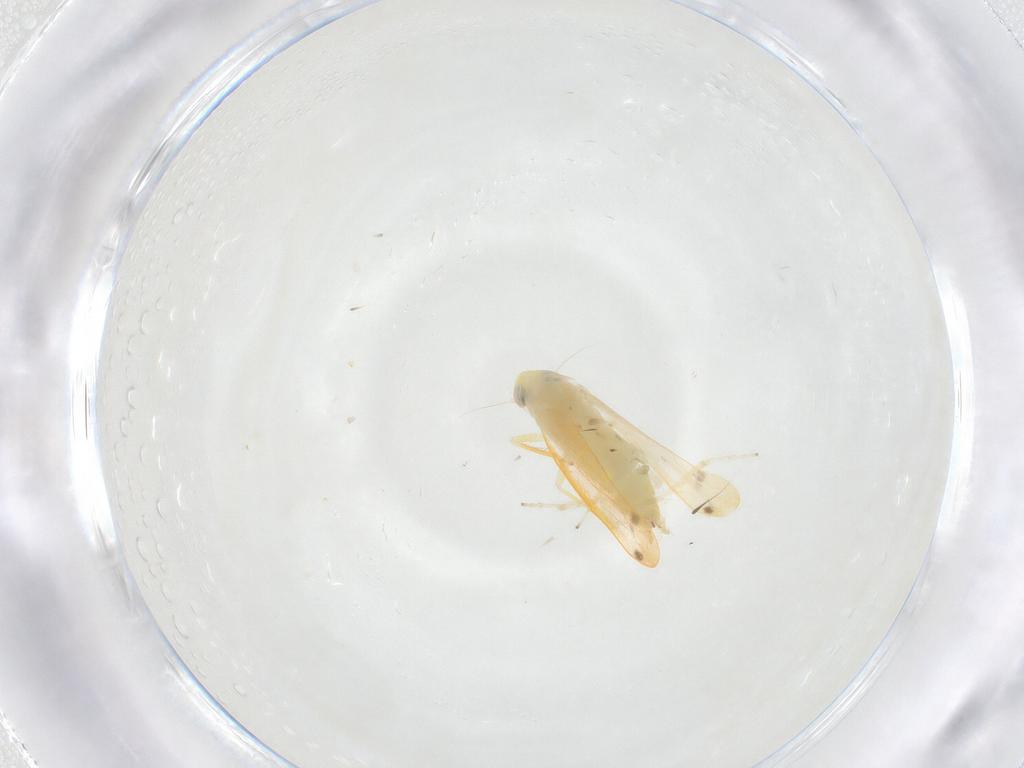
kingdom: Animalia
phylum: Arthropoda
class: Insecta
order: Hemiptera
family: Cicadellidae
